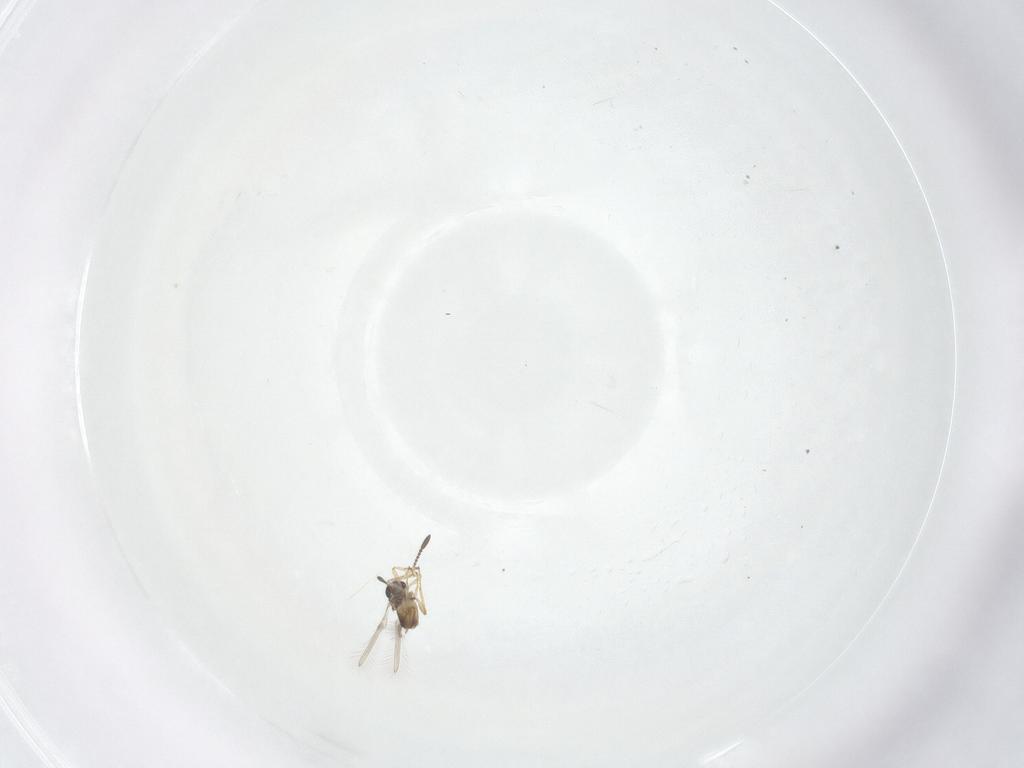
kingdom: Animalia
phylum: Arthropoda
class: Insecta
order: Hymenoptera
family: Mymaridae
